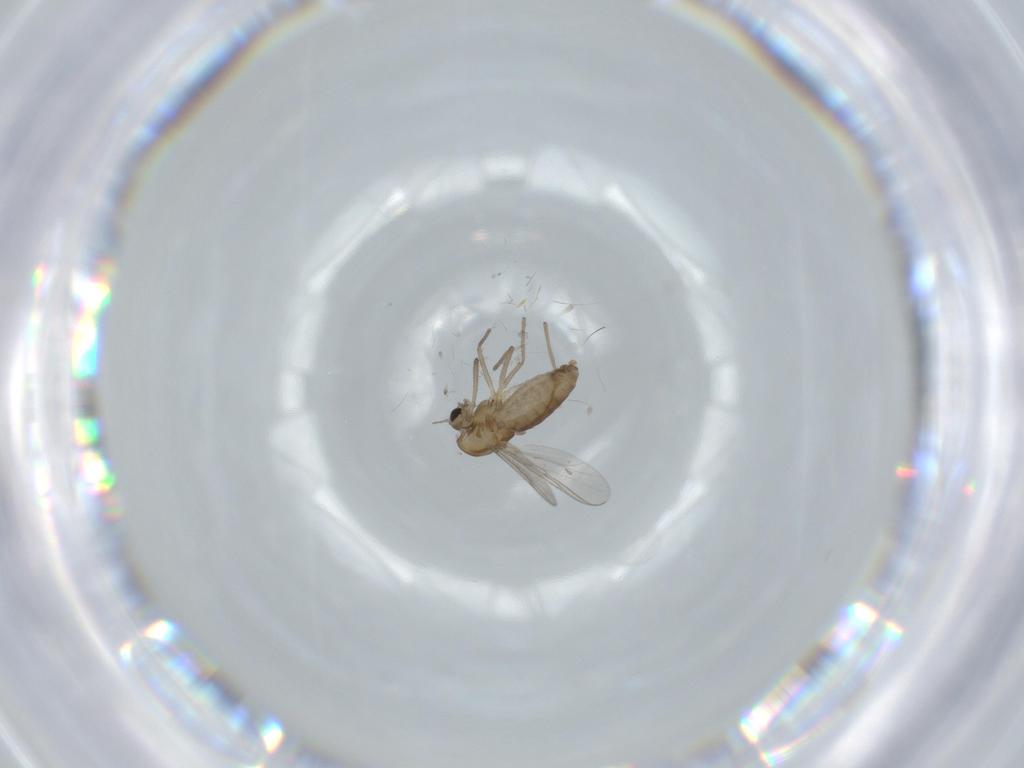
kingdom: Animalia
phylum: Arthropoda
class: Insecta
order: Diptera
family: Chironomidae
